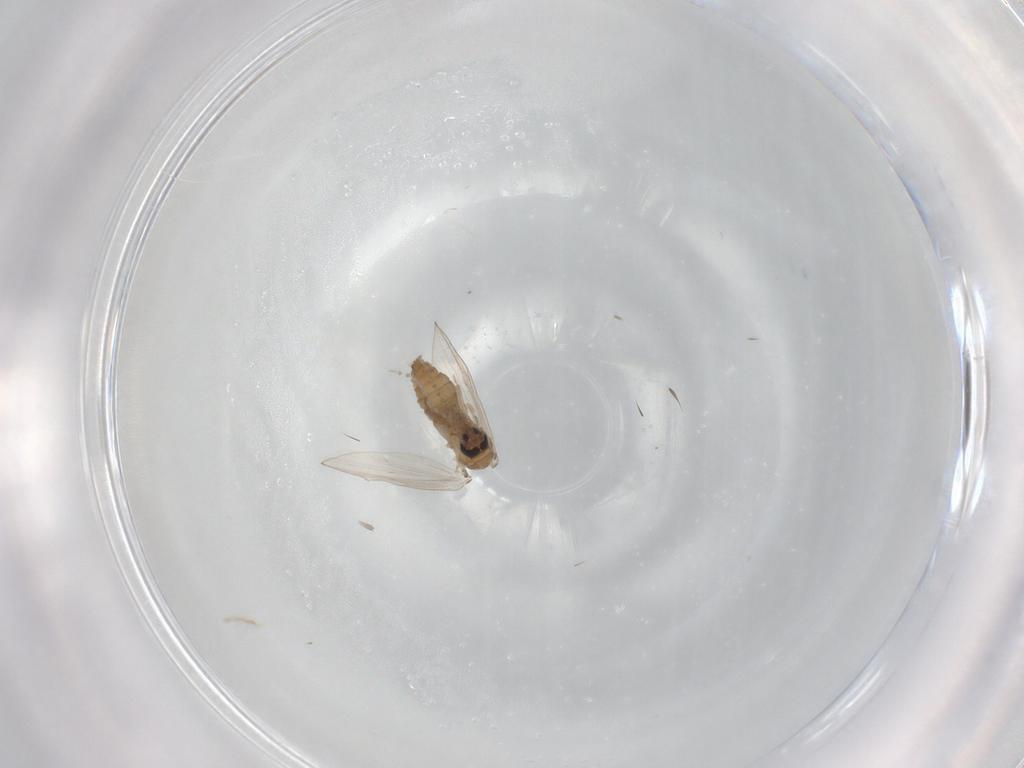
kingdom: Animalia
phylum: Arthropoda
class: Insecta
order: Diptera
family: Psychodidae
